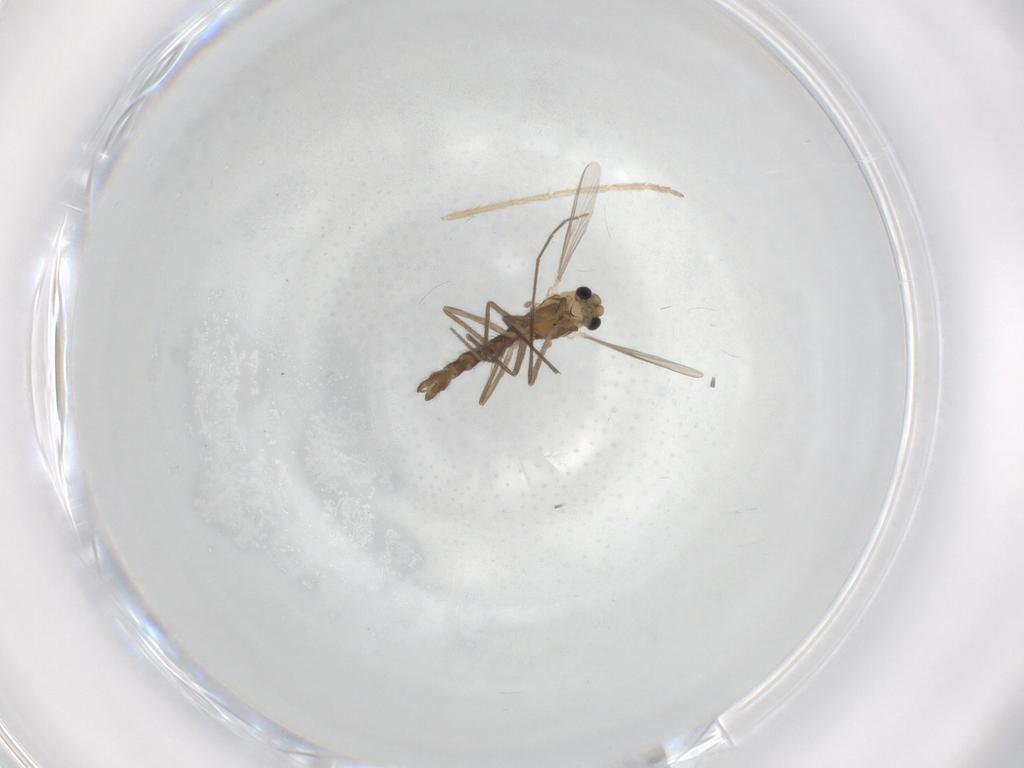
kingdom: Animalia
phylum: Arthropoda
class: Insecta
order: Diptera
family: Chironomidae
